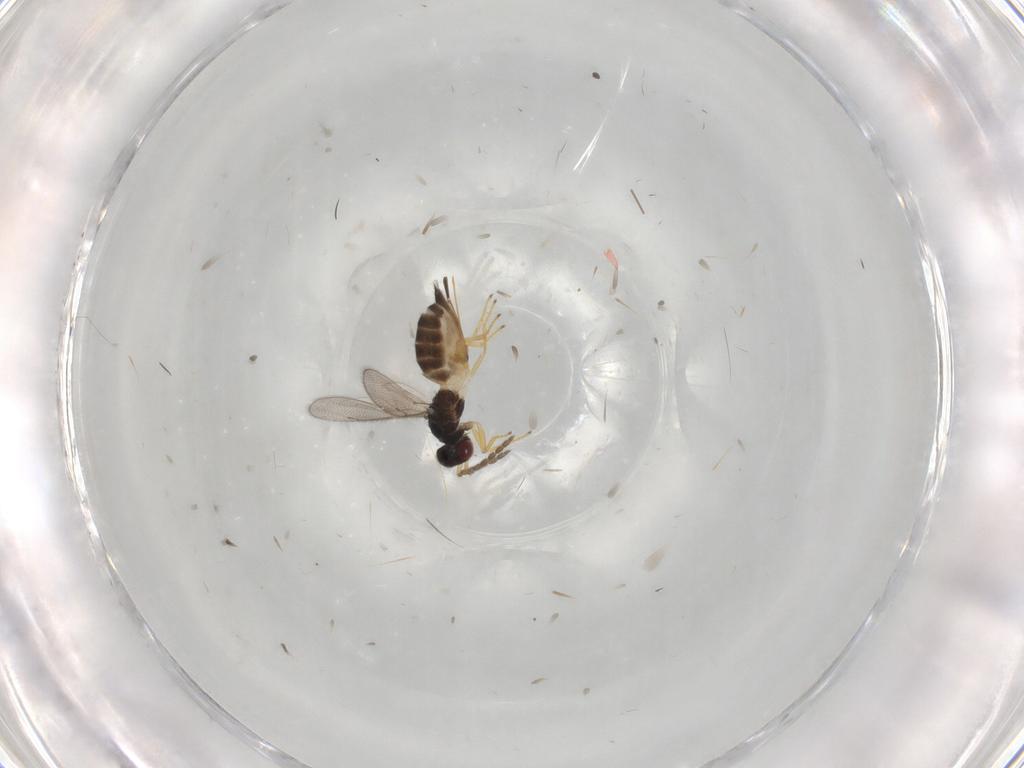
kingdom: Animalia
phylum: Arthropoda
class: Insecta
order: Hymenoptera
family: Eulophidae
